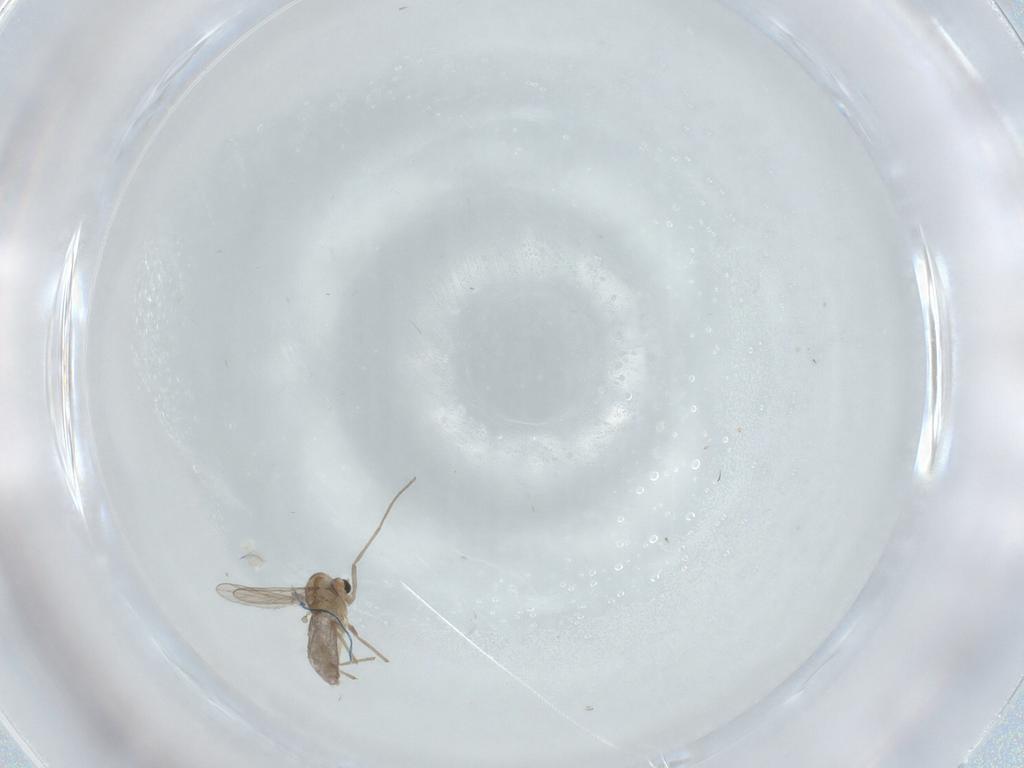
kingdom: Animalia
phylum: Arthropoda
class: Insecta
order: Diptera
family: Chironomidae
